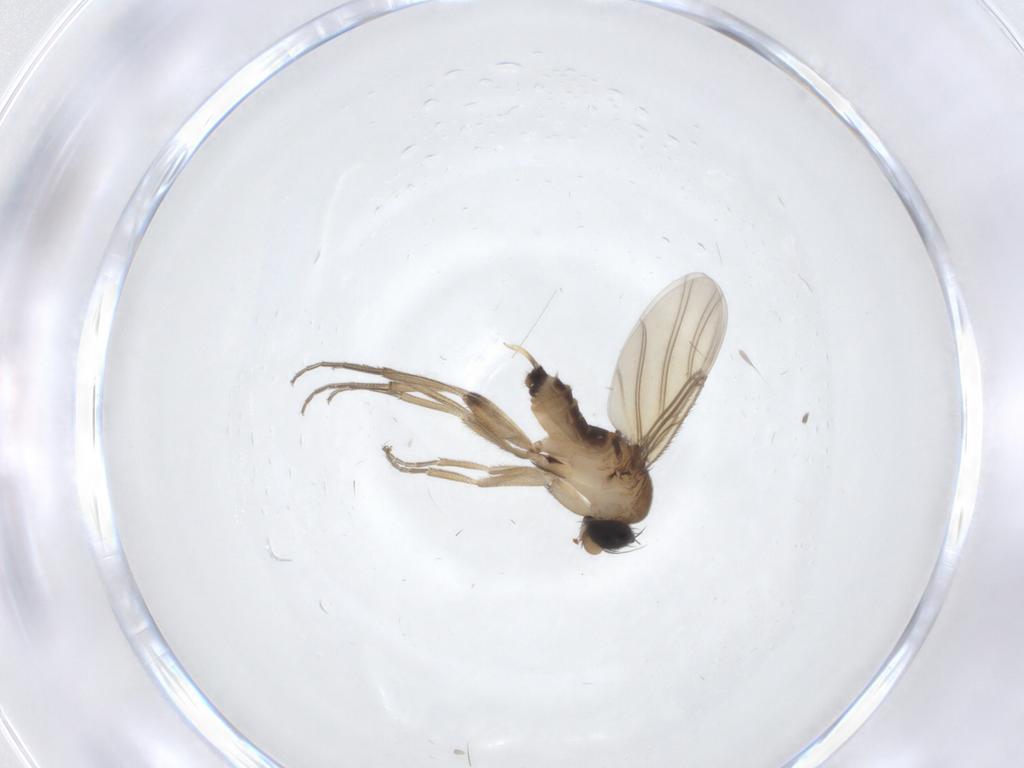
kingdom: Animalia
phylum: Arthropoda
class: Insecta
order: Diptera
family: Phoridae
